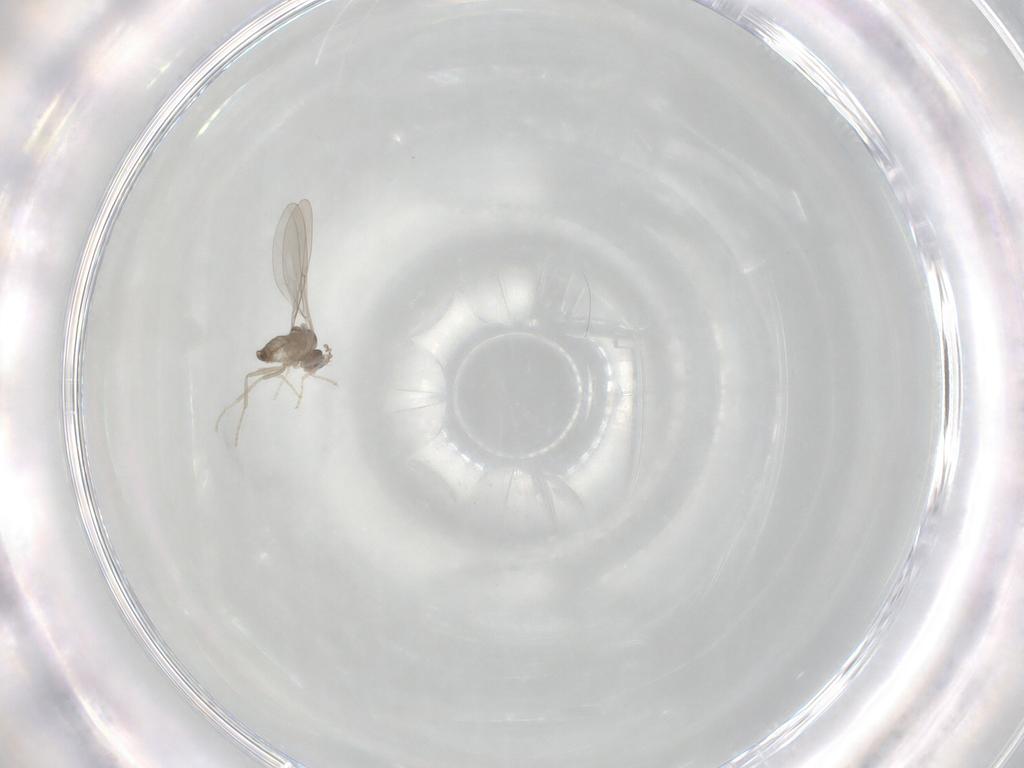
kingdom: Animalia
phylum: Arthropoda
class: Insecta
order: Diptera
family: Cecidomyiidae
